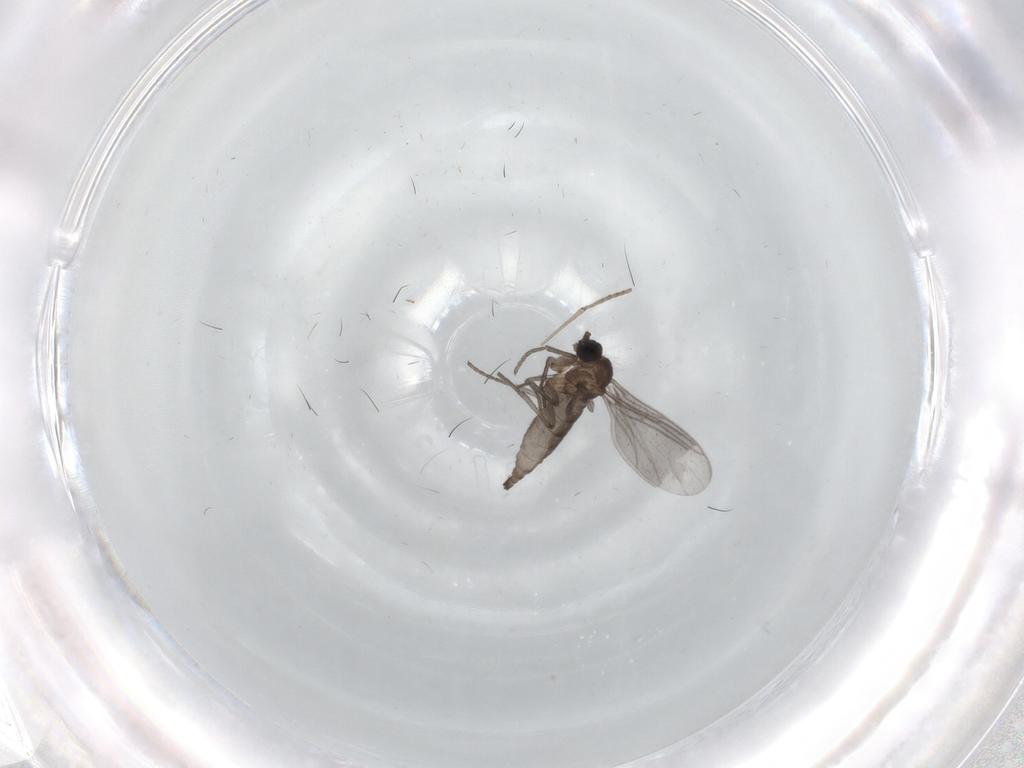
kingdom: Animalia
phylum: Arthropoda
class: Insecta
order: Diptera
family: Sciaridae
